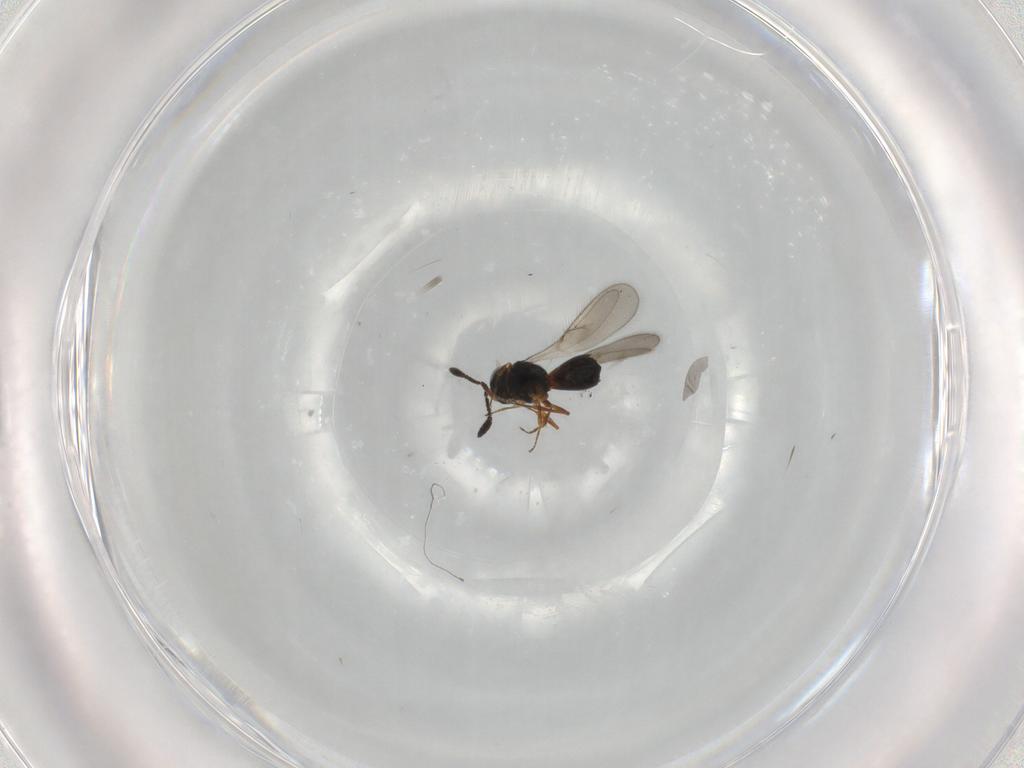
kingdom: Animalia
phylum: Arthropoda
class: Insecta
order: Hymenoptera
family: Scelionidae
